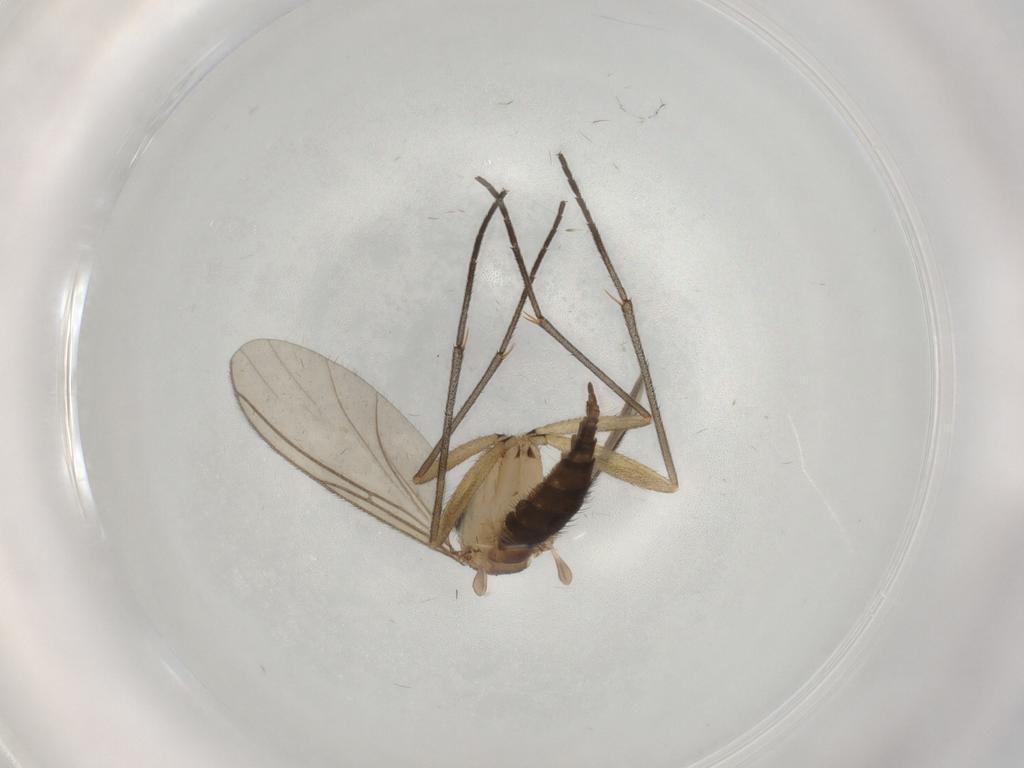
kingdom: Animalia
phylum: Arthropoda
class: Insecta
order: Diptera
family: Sciaridae
